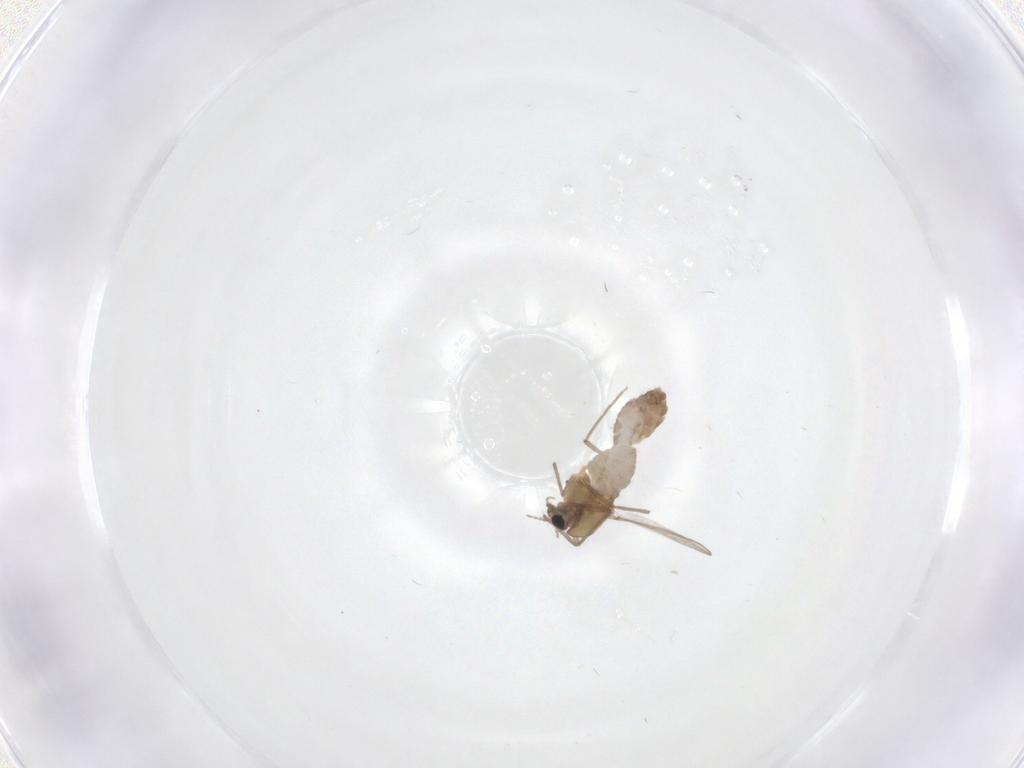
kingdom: Animalia
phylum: Arthropoda
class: Insecta
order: Diptera
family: Chironomidae
